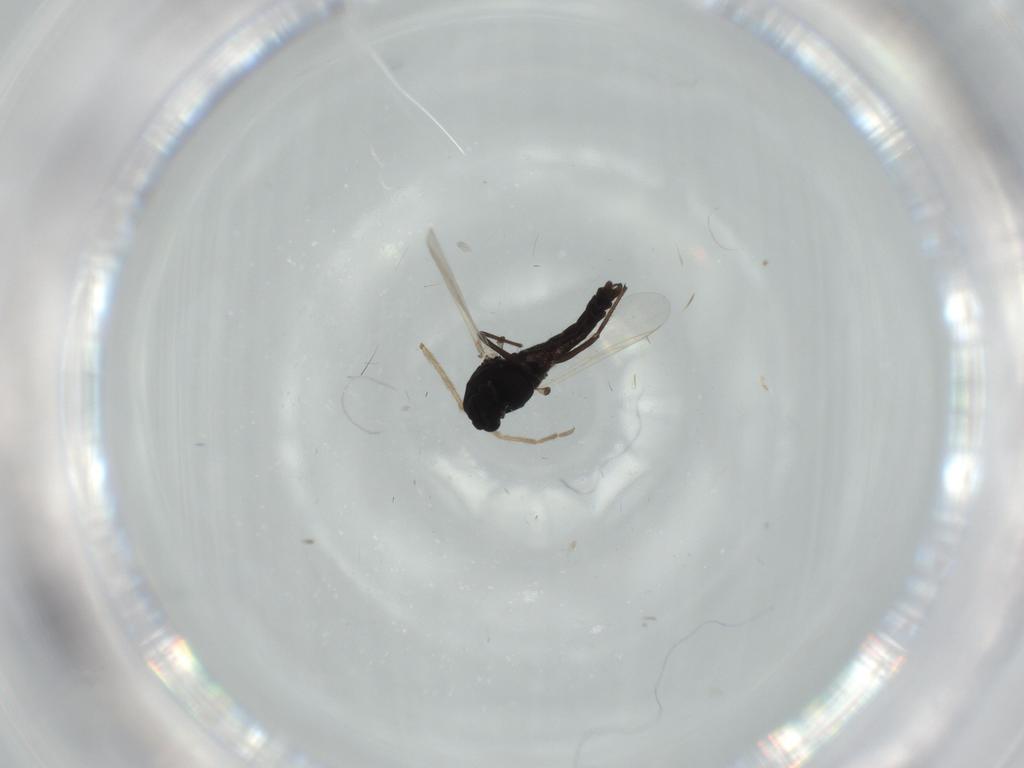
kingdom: Animalia
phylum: Arthropoda
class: Insecta
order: Diptera
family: Cecidomyiidae
